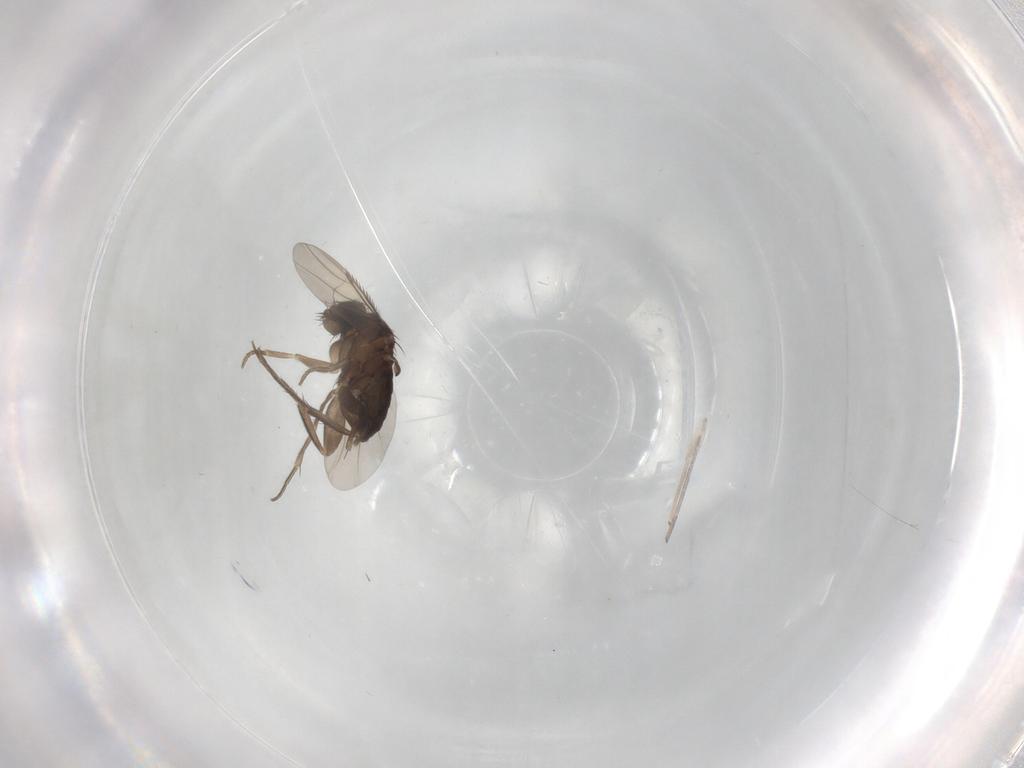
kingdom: Animalia
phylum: Arthropoda
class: Insecta
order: Diptera
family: Phoridae
